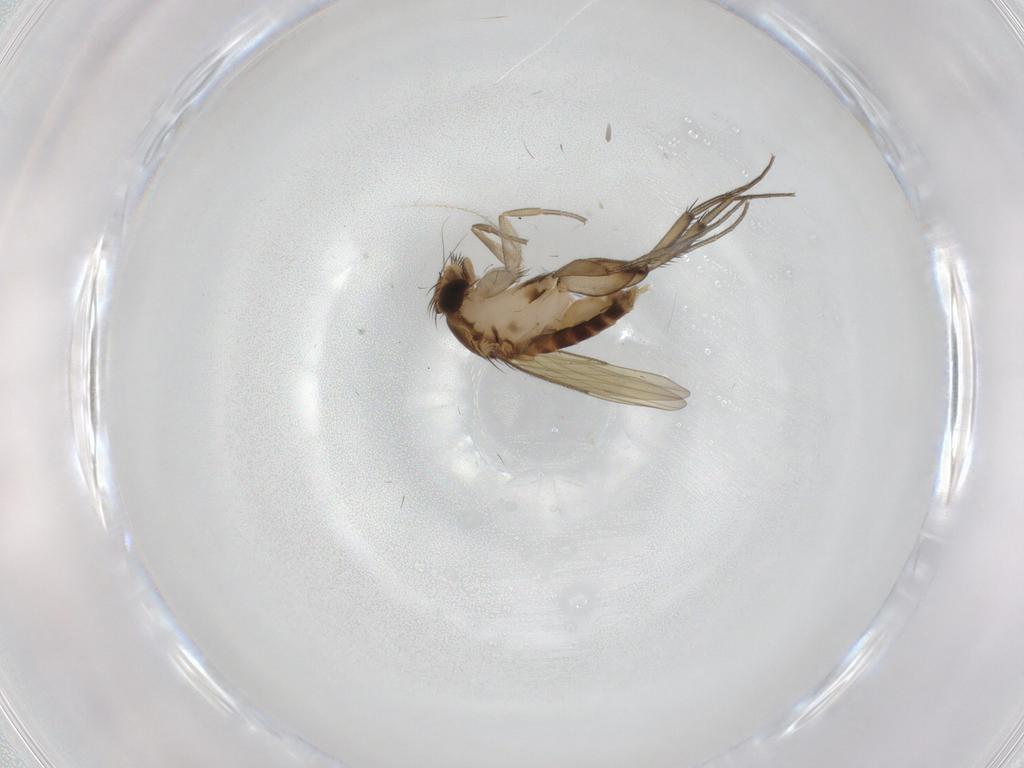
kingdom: Animalia
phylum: Arthropoda
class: Insecta
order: Diptera
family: Phoridae
